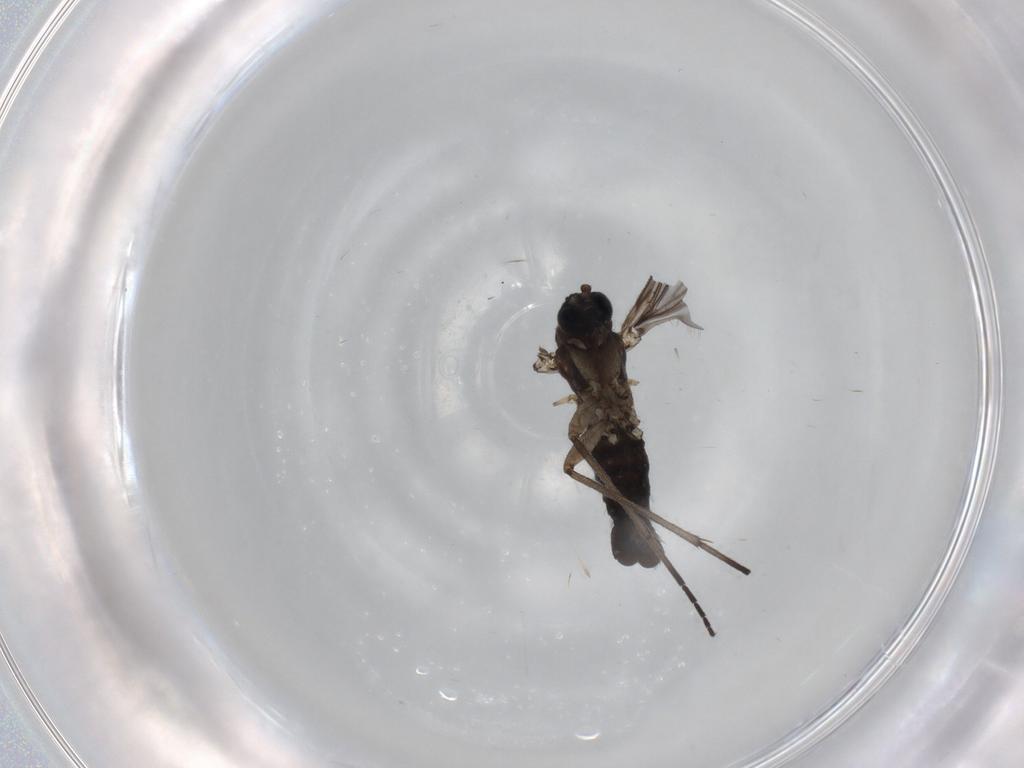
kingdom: Animalia
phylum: Arthropoda
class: Insecta
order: Diptera
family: Sciaridae
